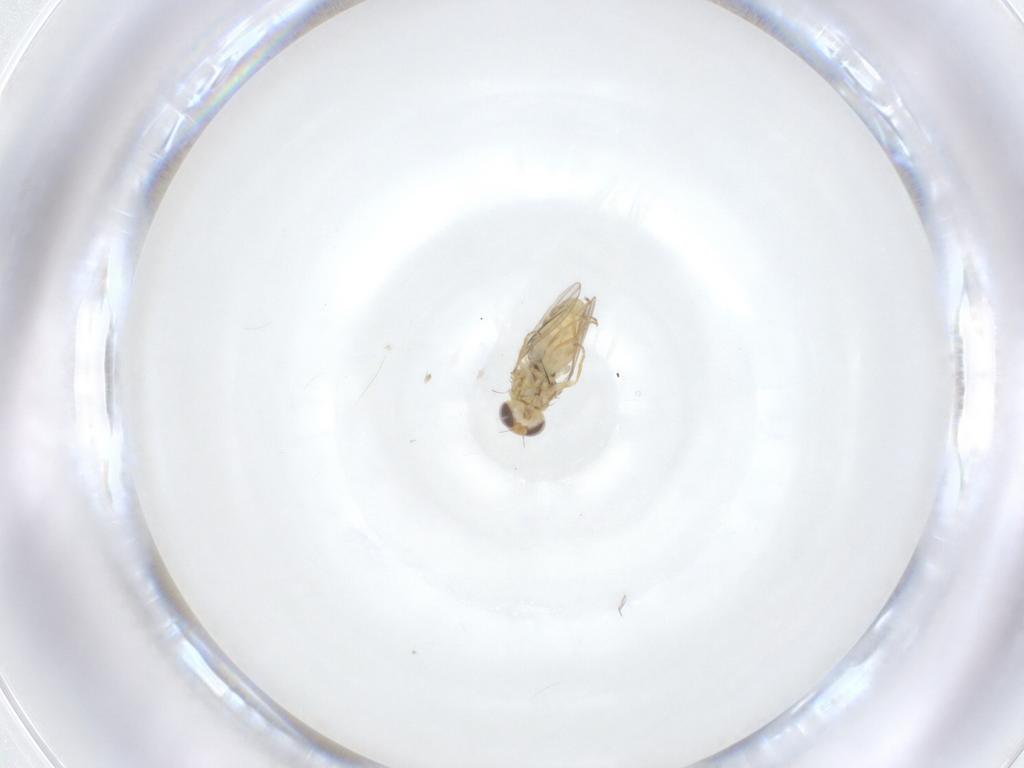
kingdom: Animalia
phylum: Arthropoda
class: Insecta
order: Diptera
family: Chyromyidae
